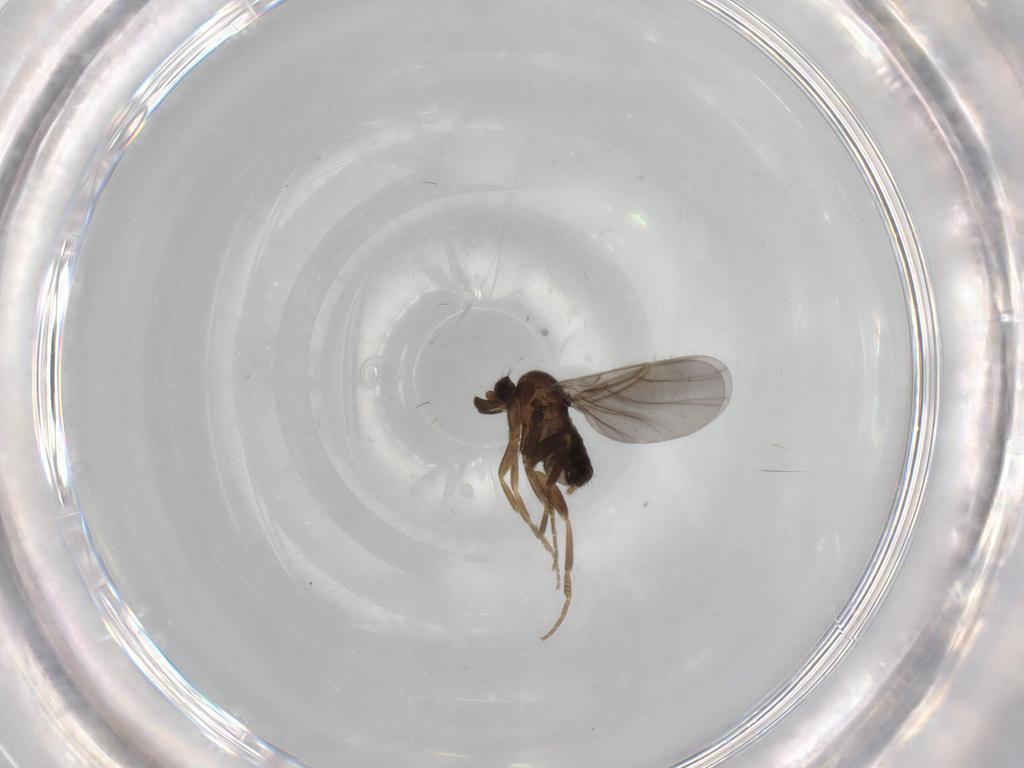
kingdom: Animalia
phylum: Arthropoda
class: Insecta
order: Diptera
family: Phoridae
